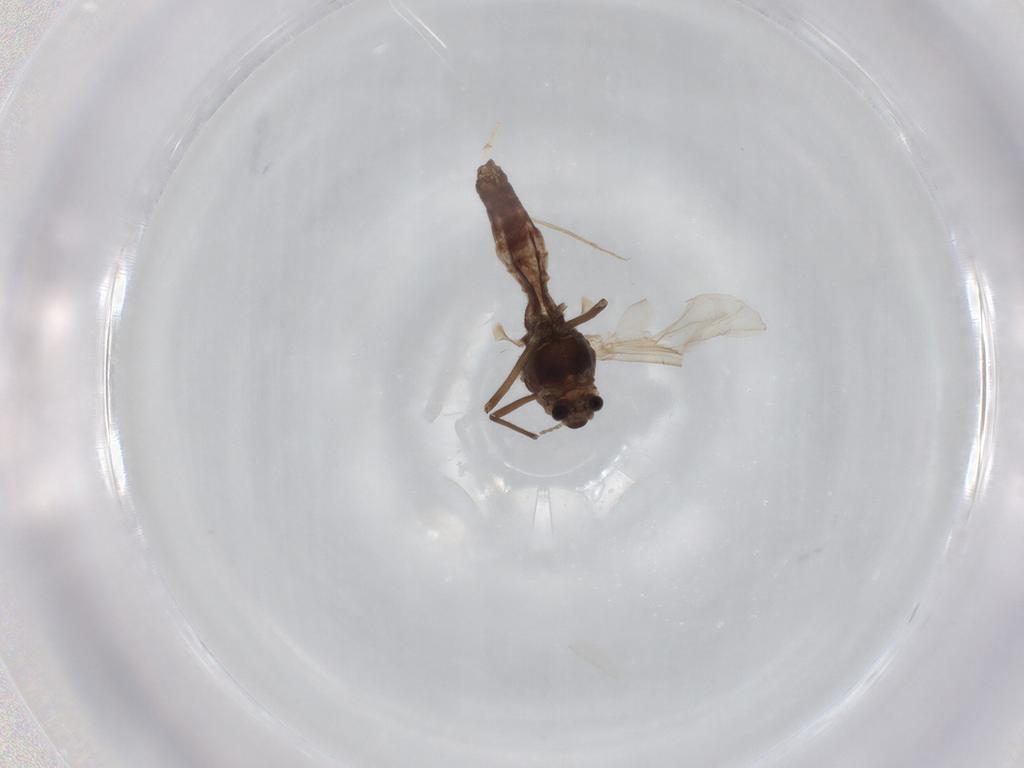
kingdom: Animalia
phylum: Arthropoda
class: Insecta
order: Diptera
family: Chironomidae
